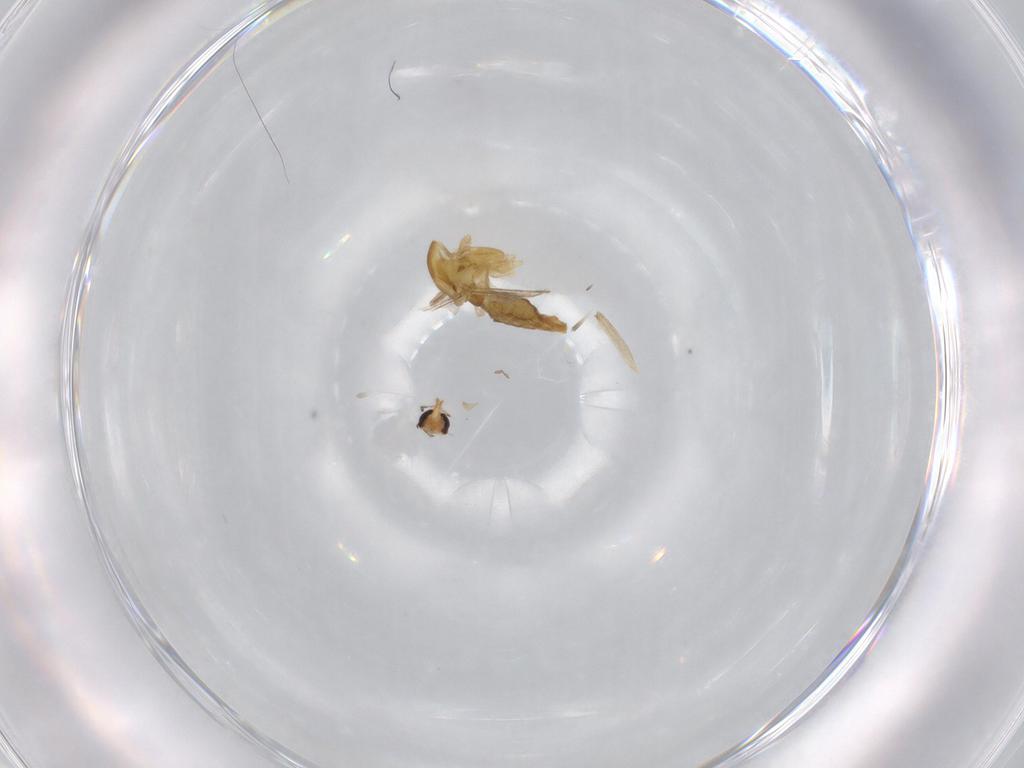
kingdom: Animalia
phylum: Arthropoda
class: Insecta
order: Diptera
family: Chironomidae
